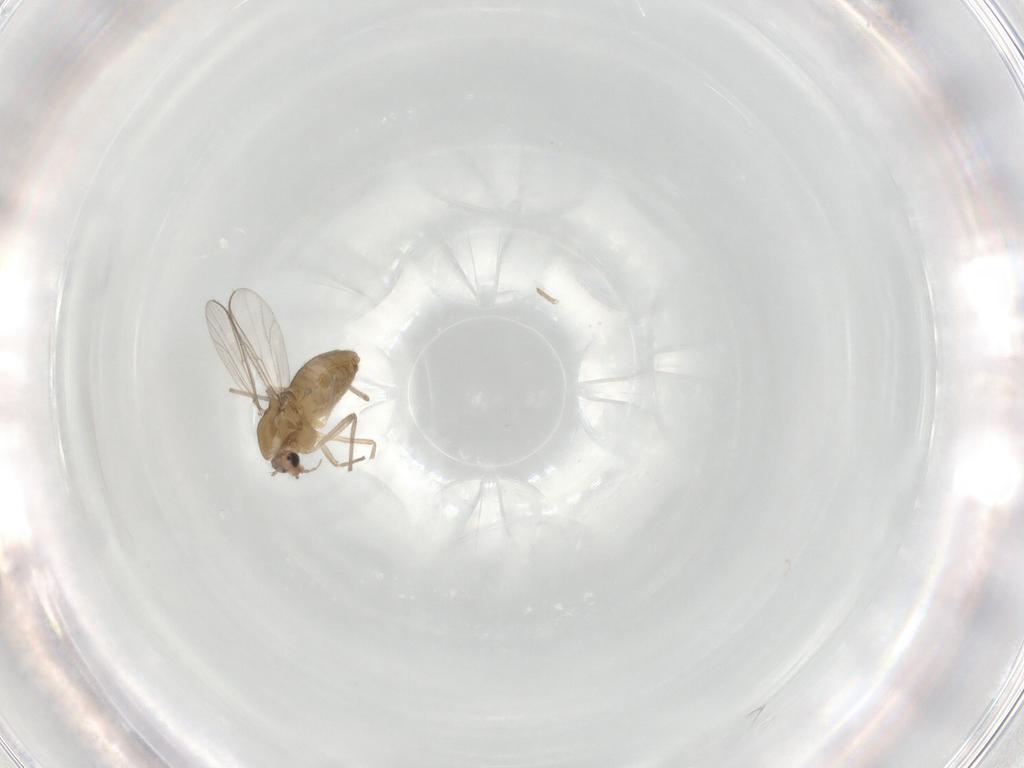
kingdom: Animalia
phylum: Arthropoda
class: Insecta
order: Diptera
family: Chironomidae
